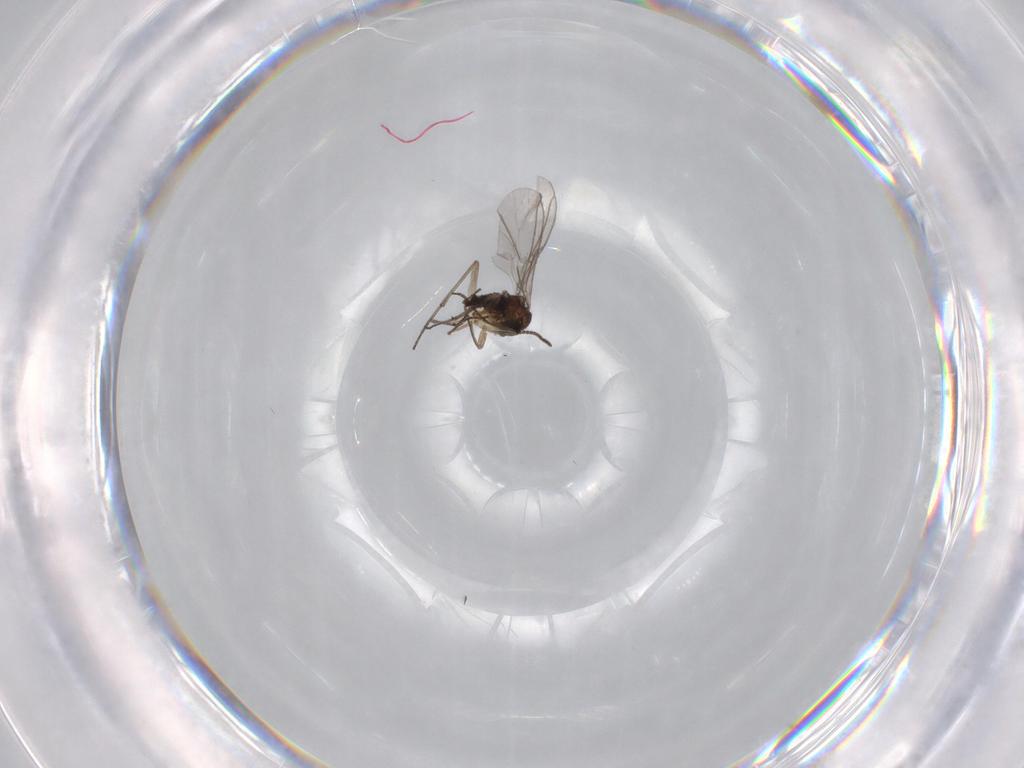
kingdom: Animalia
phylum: Arthropoda
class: Insecta
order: Diptera
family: Sciaridae
